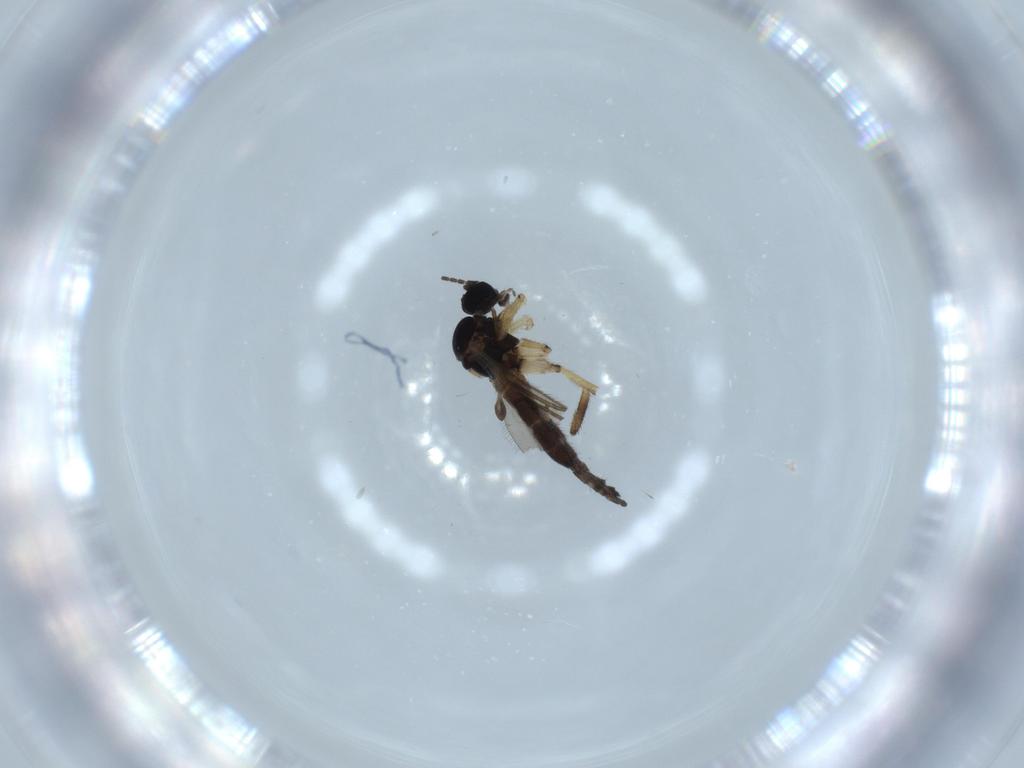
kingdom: Animalia
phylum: Arthropoda
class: Insecta
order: Diptera
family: Sciaridae
